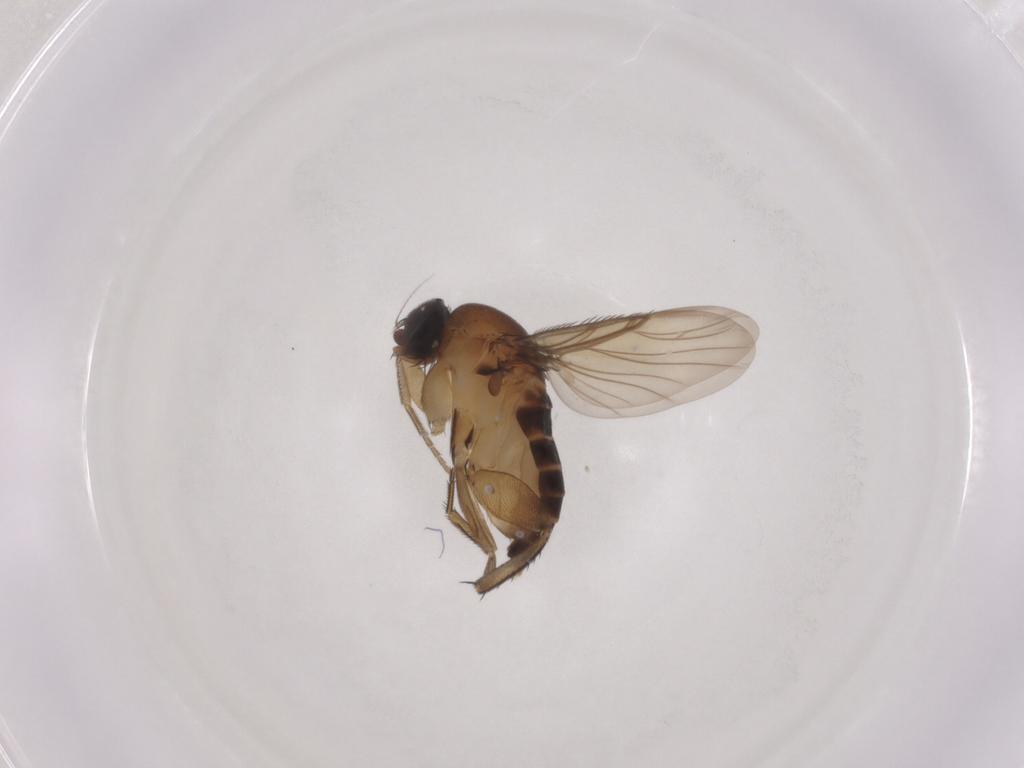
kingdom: Animalia
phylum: Arthropoda
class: Insecta
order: Diptera
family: Phoridae
